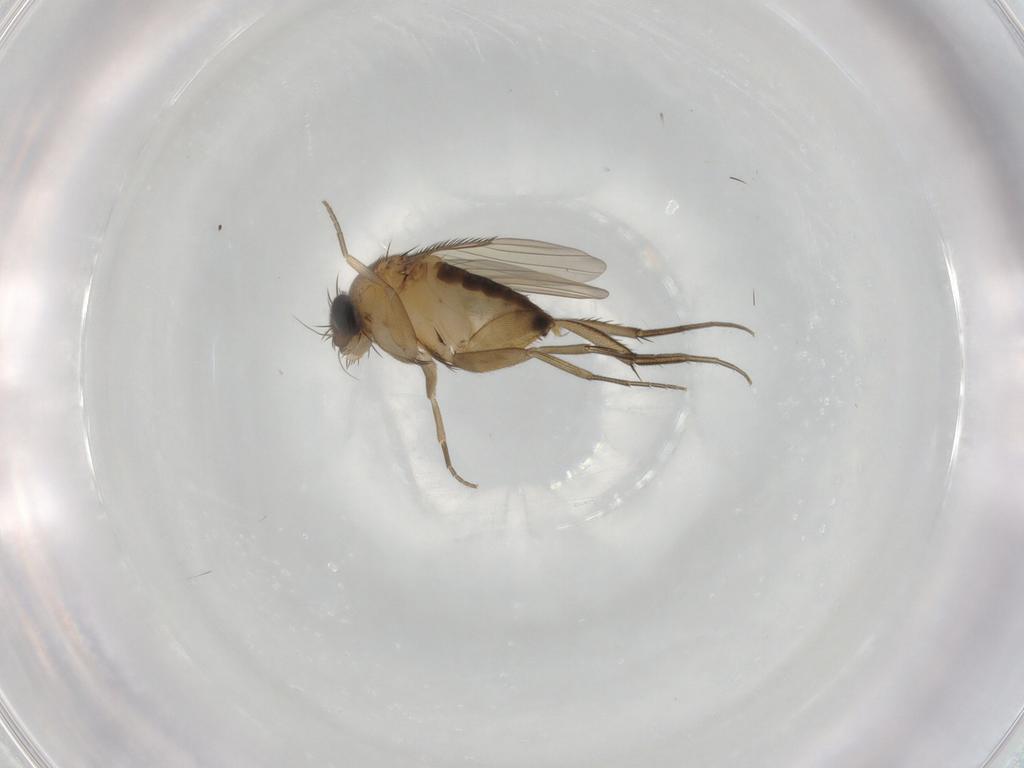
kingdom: Animalia
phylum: Arthropoda
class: Insecta
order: Diptera
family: Phoridae
